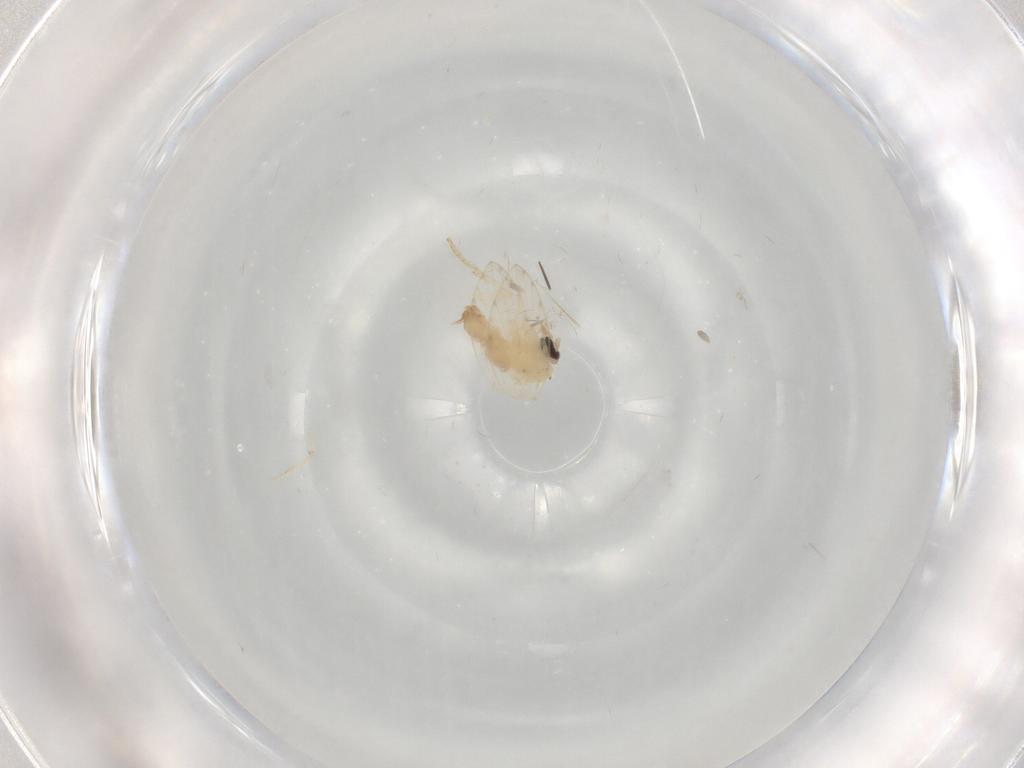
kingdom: Animalia
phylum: Arthropoda
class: Insecta
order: Diptera
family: Psychodidae
